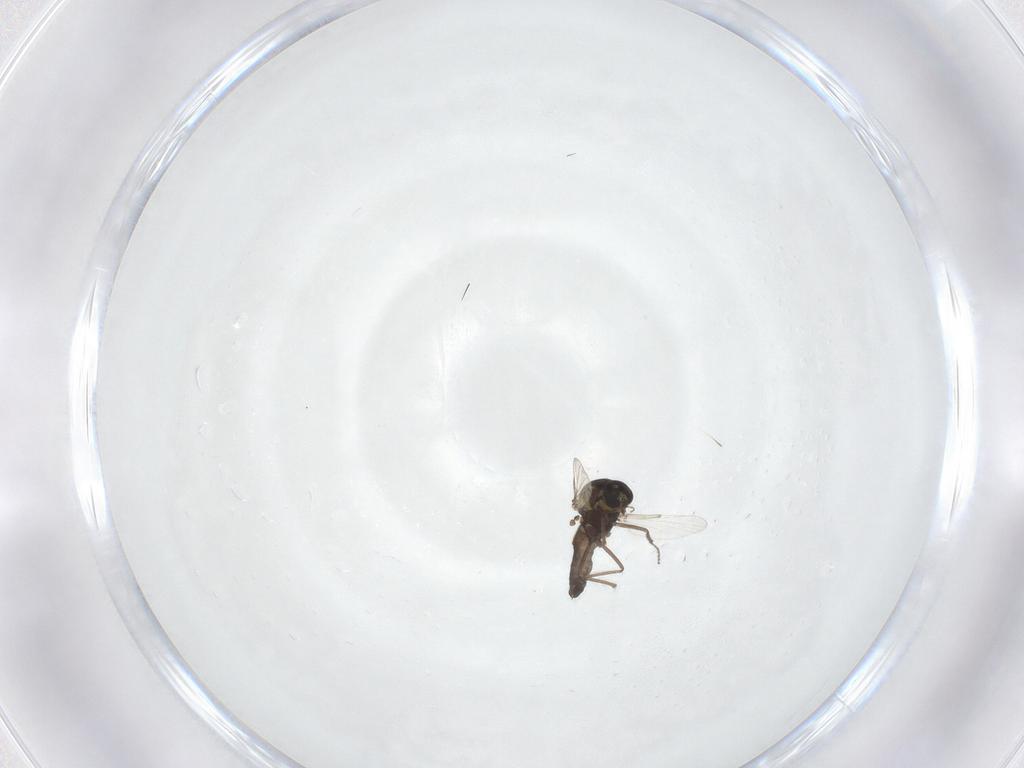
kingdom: Animalia
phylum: Arthropoda
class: Insecta
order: Diptera
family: Ceratopogonidae
